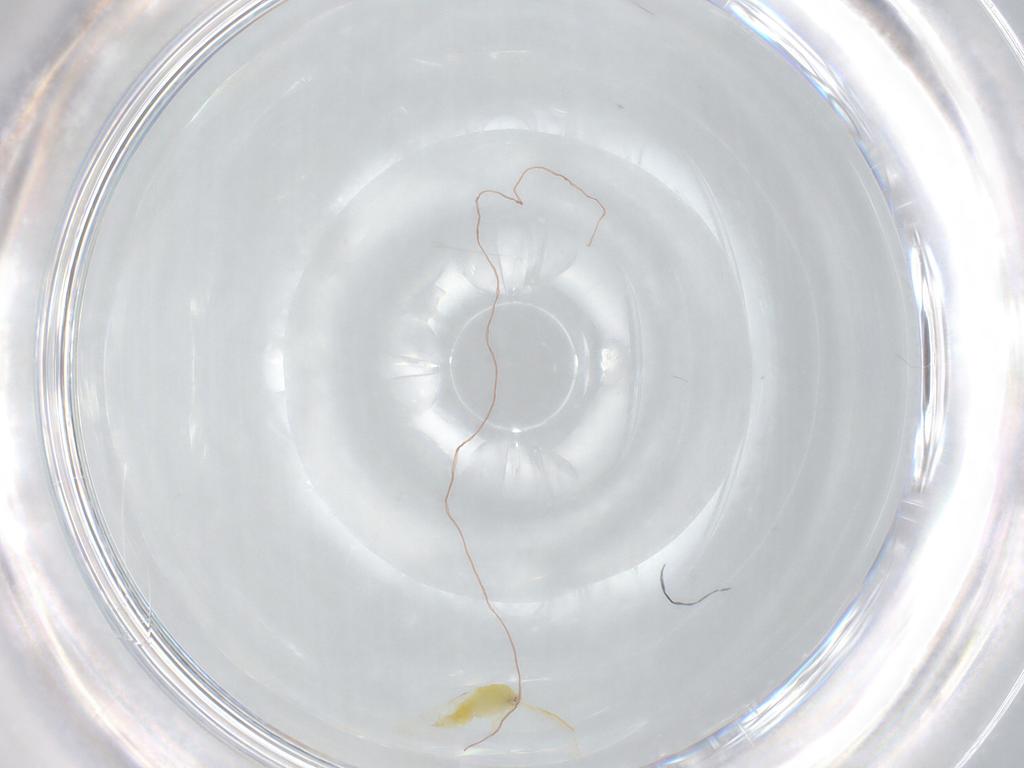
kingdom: Animalia
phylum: Arthropoda
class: Insecta
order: Hemiptera
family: Aleyrodidae
